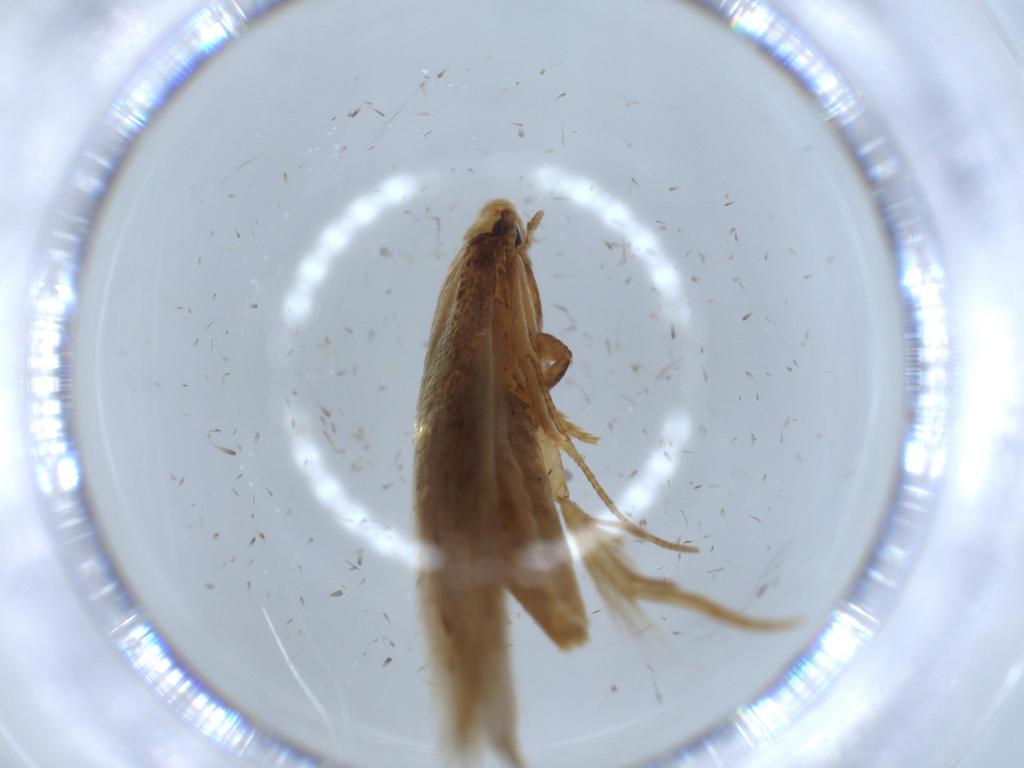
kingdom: Animalia
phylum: Arthropoda
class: Insecta
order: Lepidoptera
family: Tineidae
